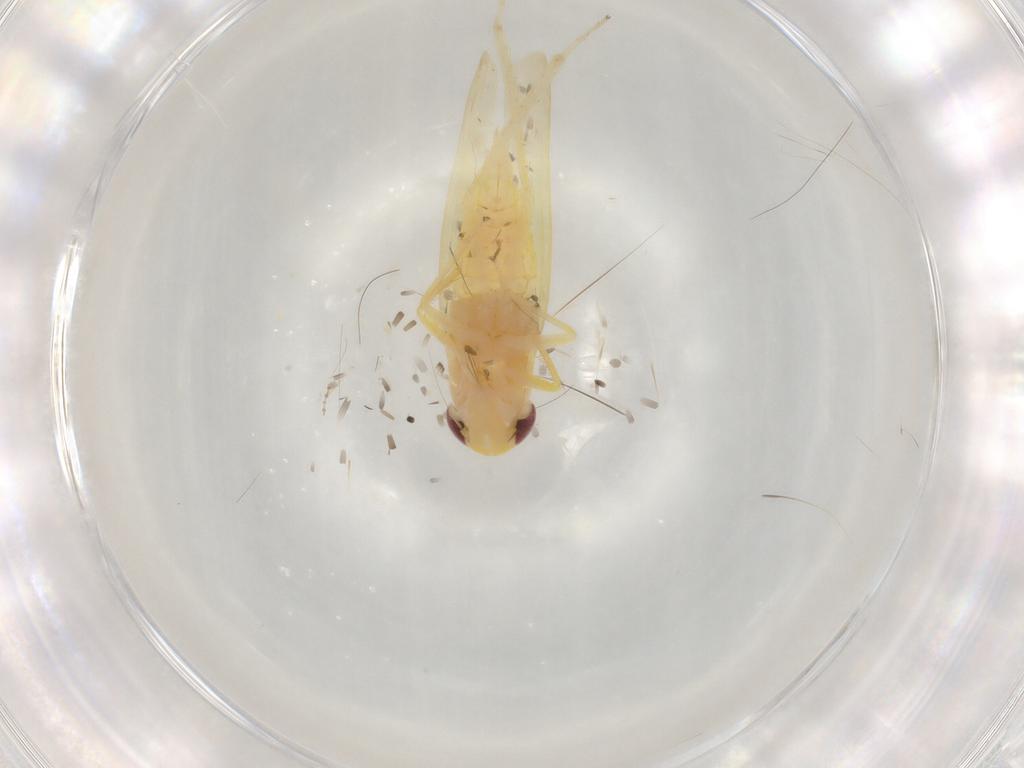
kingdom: Animalia
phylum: Arthropoda
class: Insecta
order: Hemiptera
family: Cicadellidae
